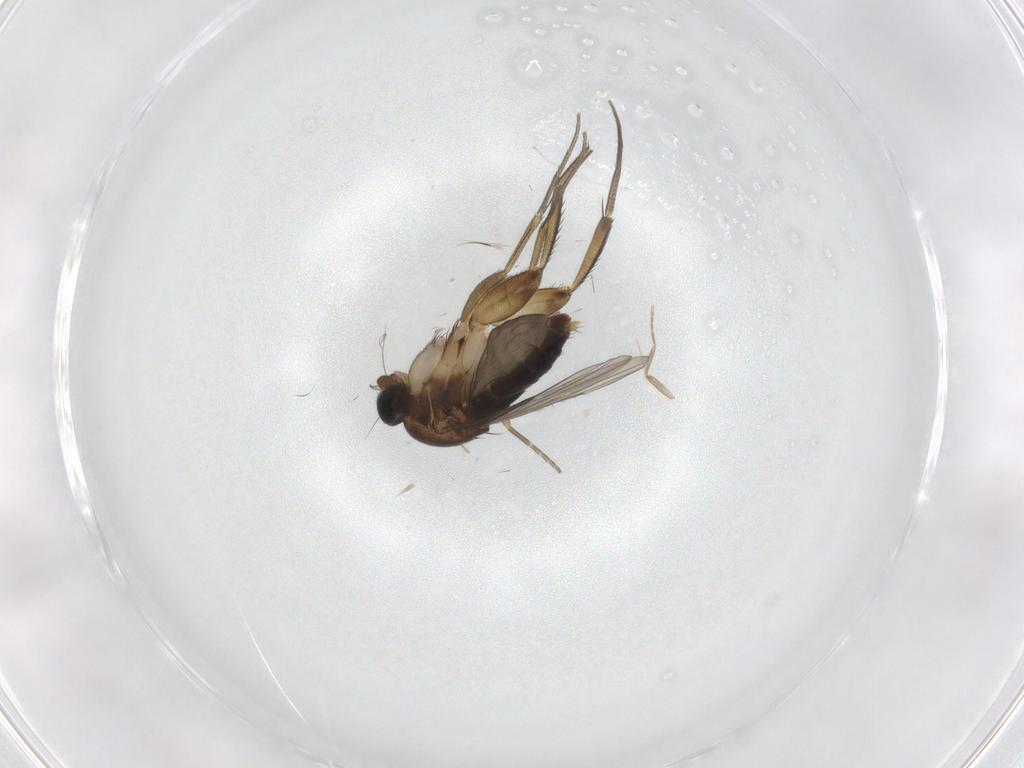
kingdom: Animalia
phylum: Arthropoda
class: Insecta
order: Diptera
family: Phoridae
